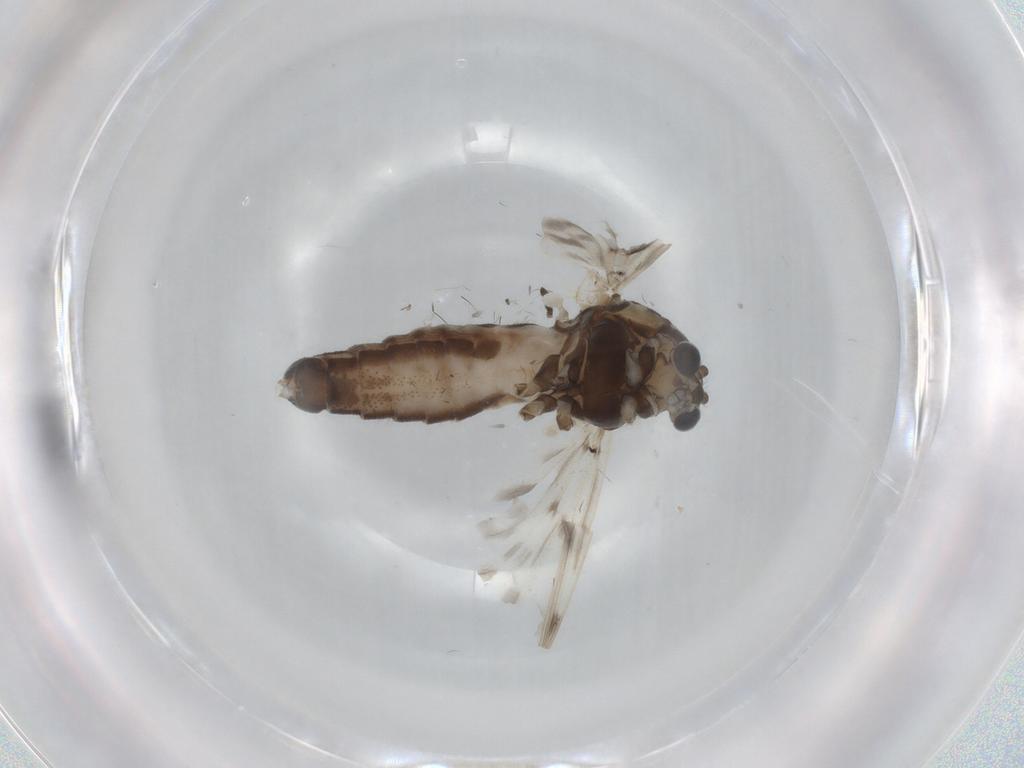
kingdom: Animalia
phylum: Arthropoda
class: Insecta
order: Diptera
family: Chironomidae
